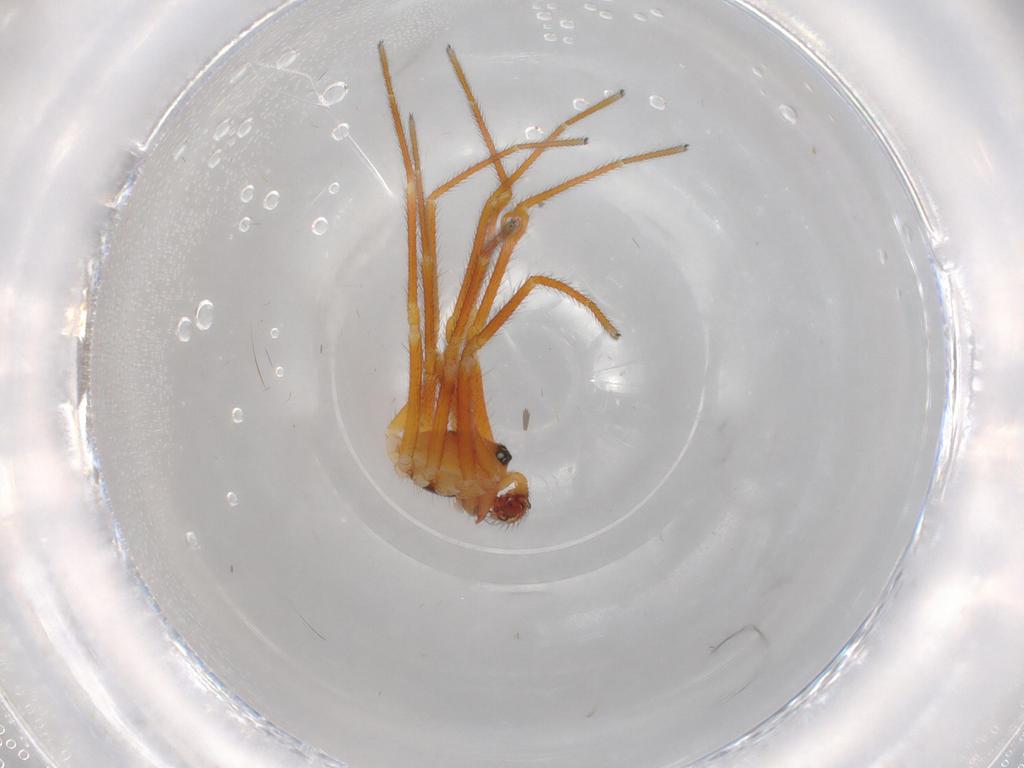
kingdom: Animalia
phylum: Arthropoda
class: Arachnida
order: Araneae
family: Linyphiidae
